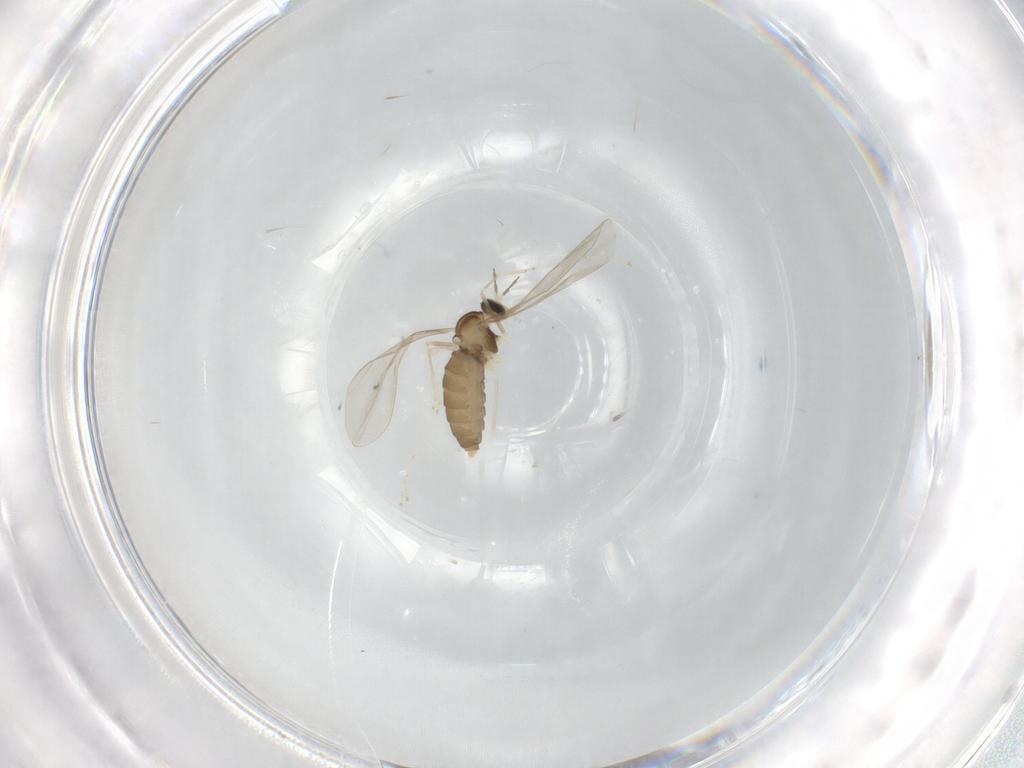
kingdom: Animalia
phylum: Arthropoda
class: Insecta
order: Diptera
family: Cecidomyiidae
